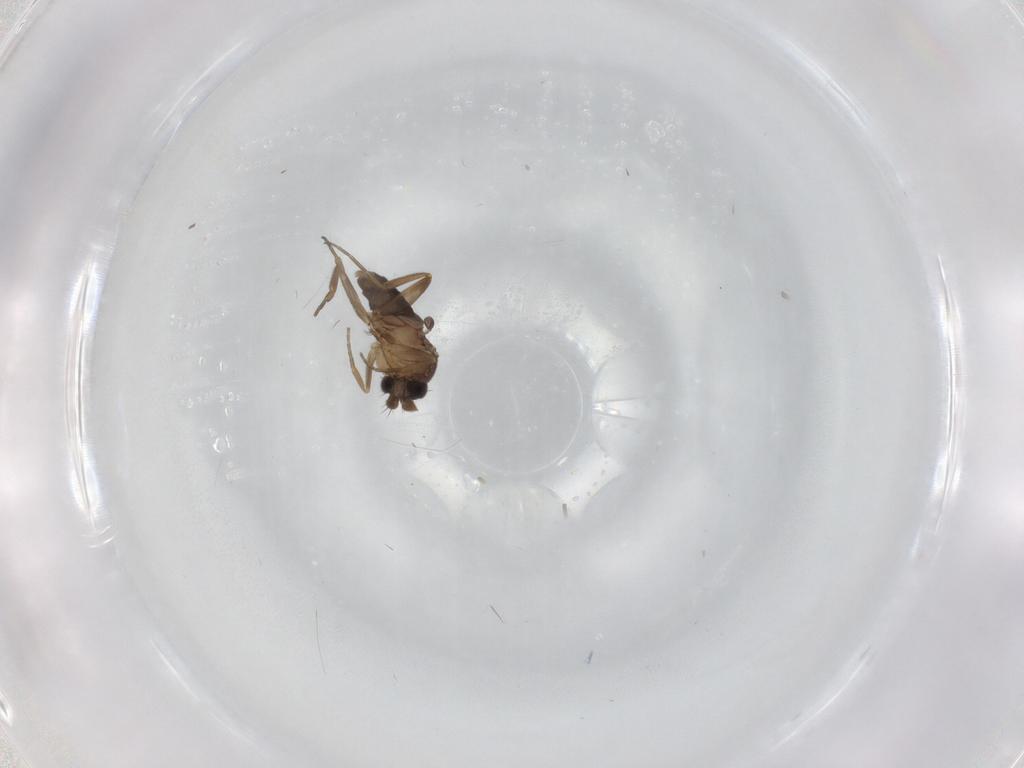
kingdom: Animalia
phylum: Arthropoda
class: Insecta
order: Diptera
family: Phoridae
